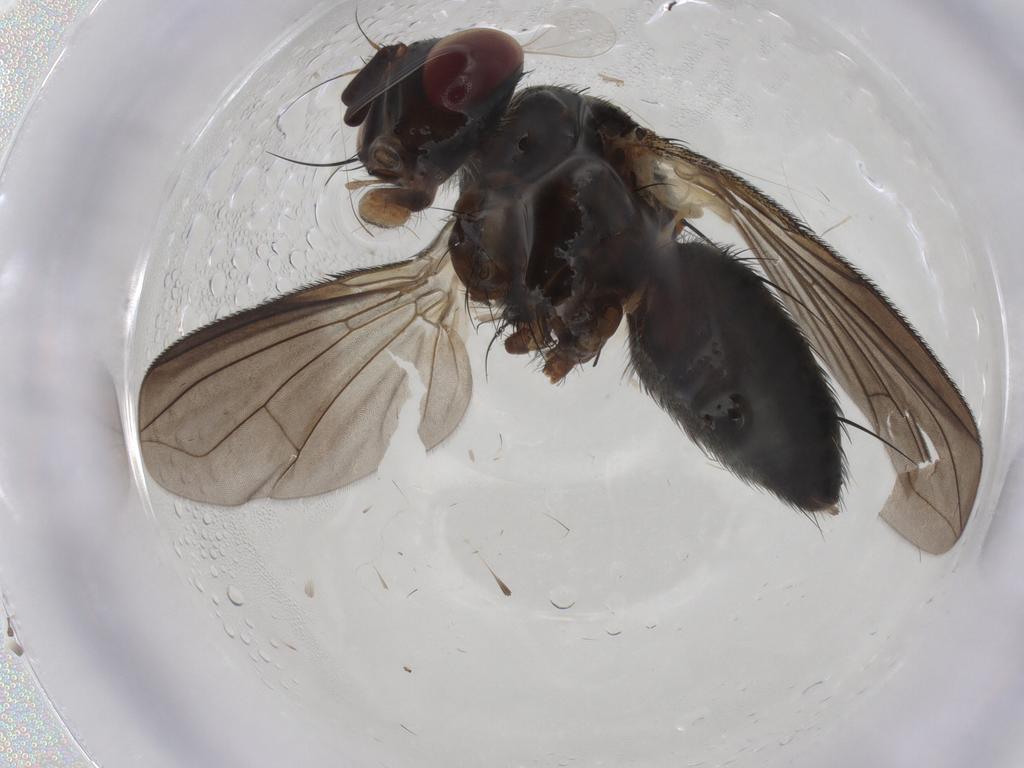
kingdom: Animalia
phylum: Arthropoda
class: Insecta
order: Diptera
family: Tachinidae
